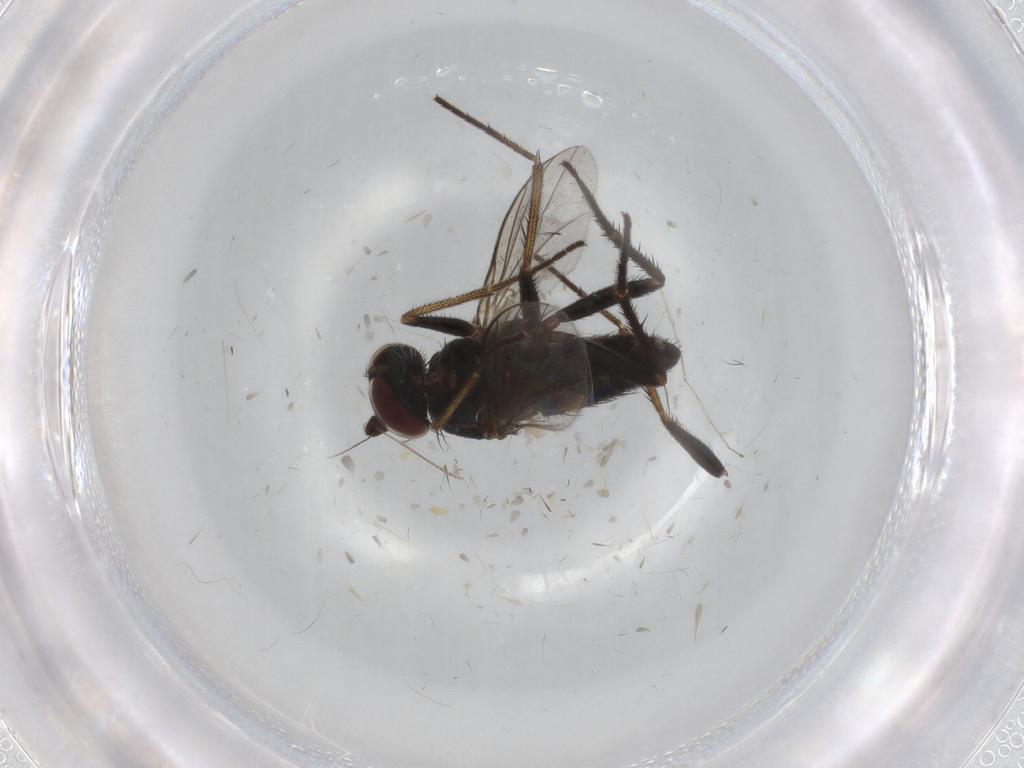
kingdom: Animalia
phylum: Arthropoda
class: Insecta
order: Diptera
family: Dolichopodidae
